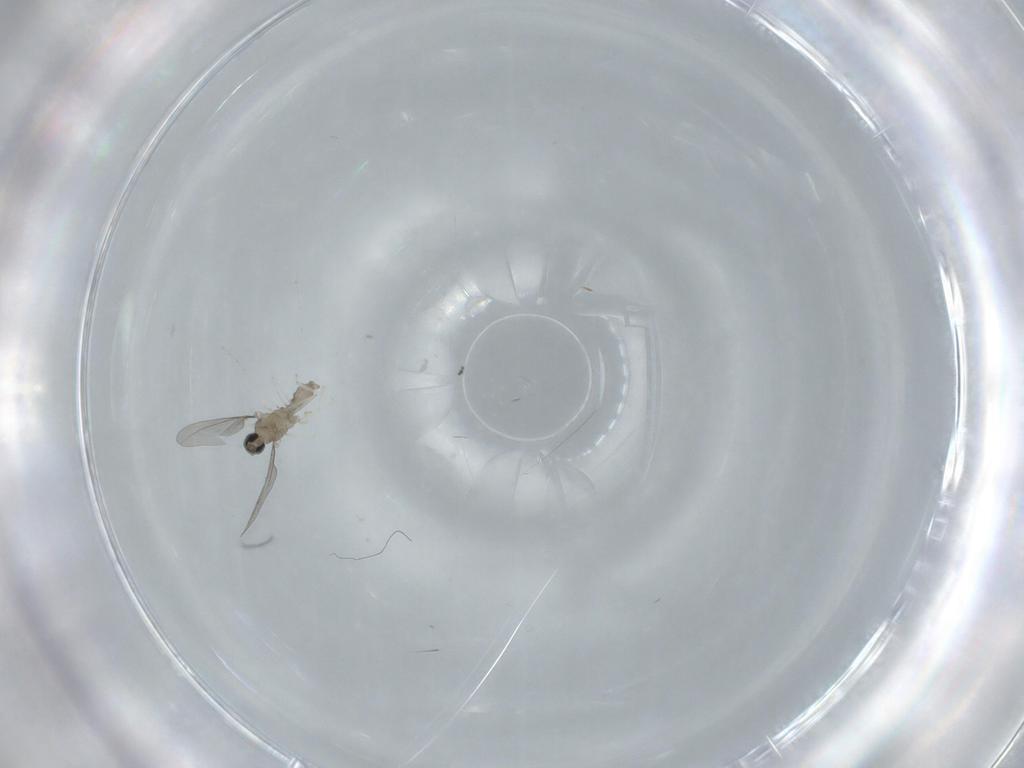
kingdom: Animalia
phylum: Arthropoda
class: Insecta
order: Diptera
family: Cecidomyiidae
